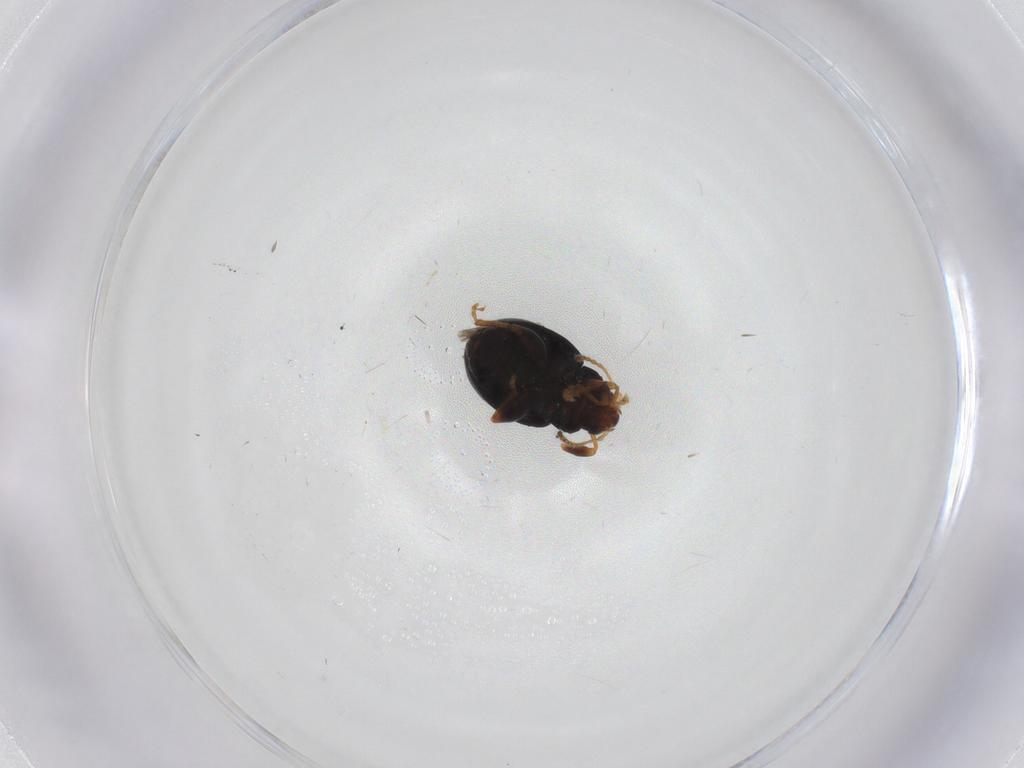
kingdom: Animalia
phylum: Arthropoda
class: Insecta
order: Coleoptera
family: Chrysomelidae
